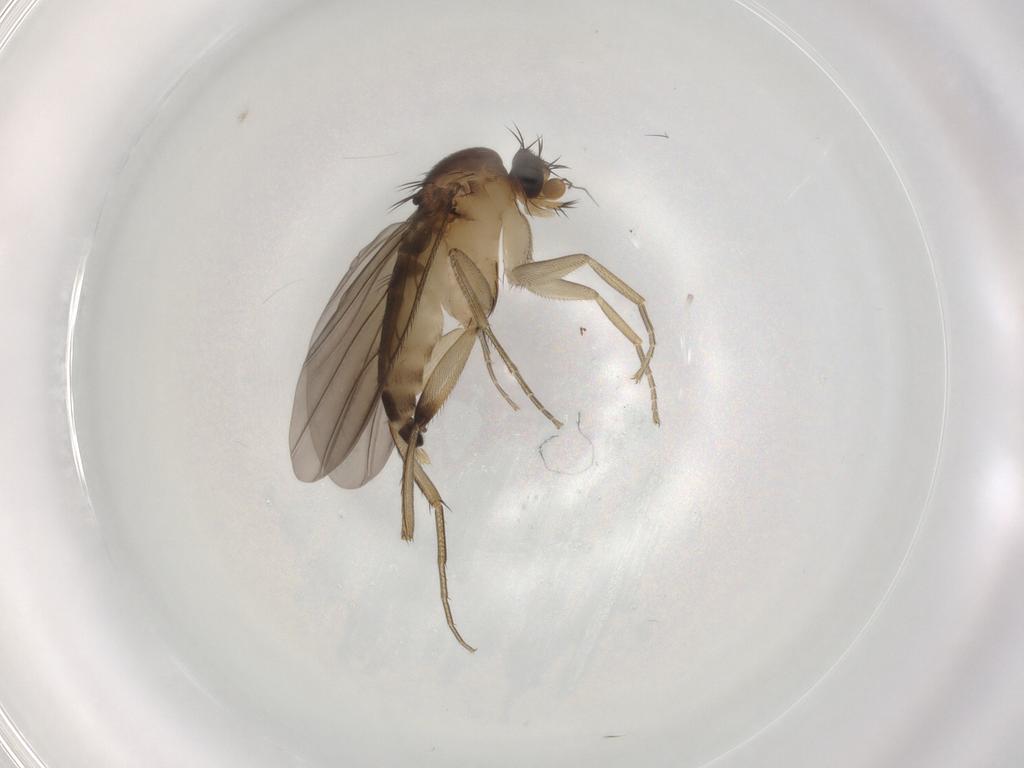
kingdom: Animalia
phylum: Arthropoda
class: Insecta
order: Diptera
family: Phoridae
